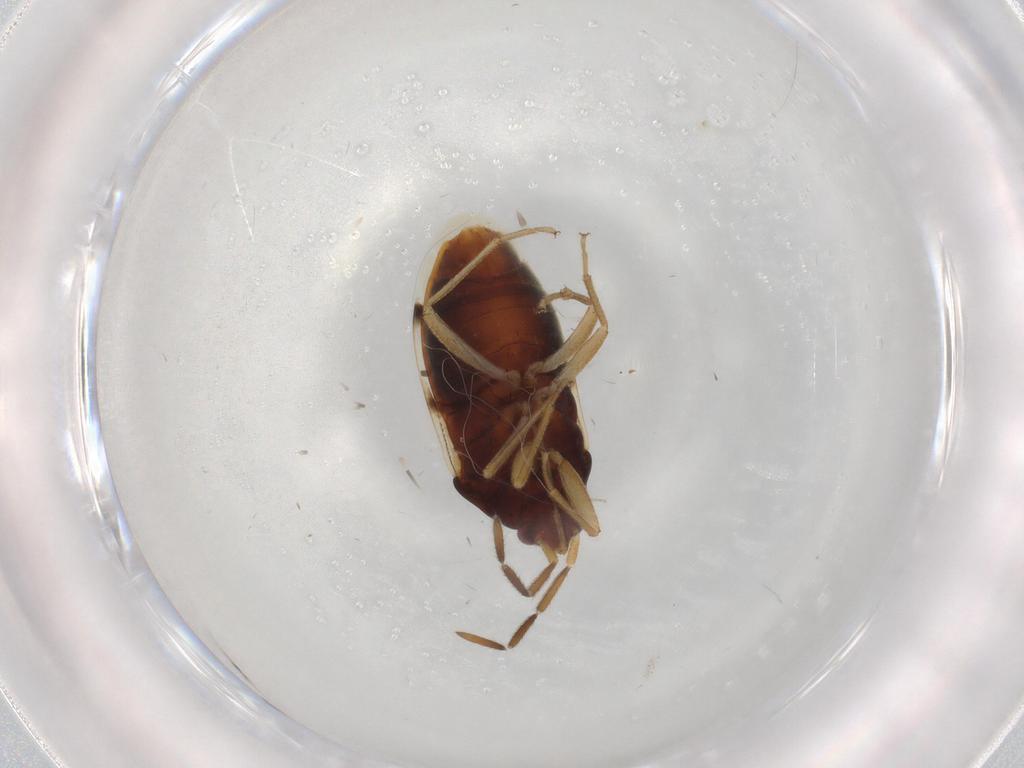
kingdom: Animalia
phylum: Arthropoda
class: Insecta
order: Hemiptera
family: Rhyparochromidae
